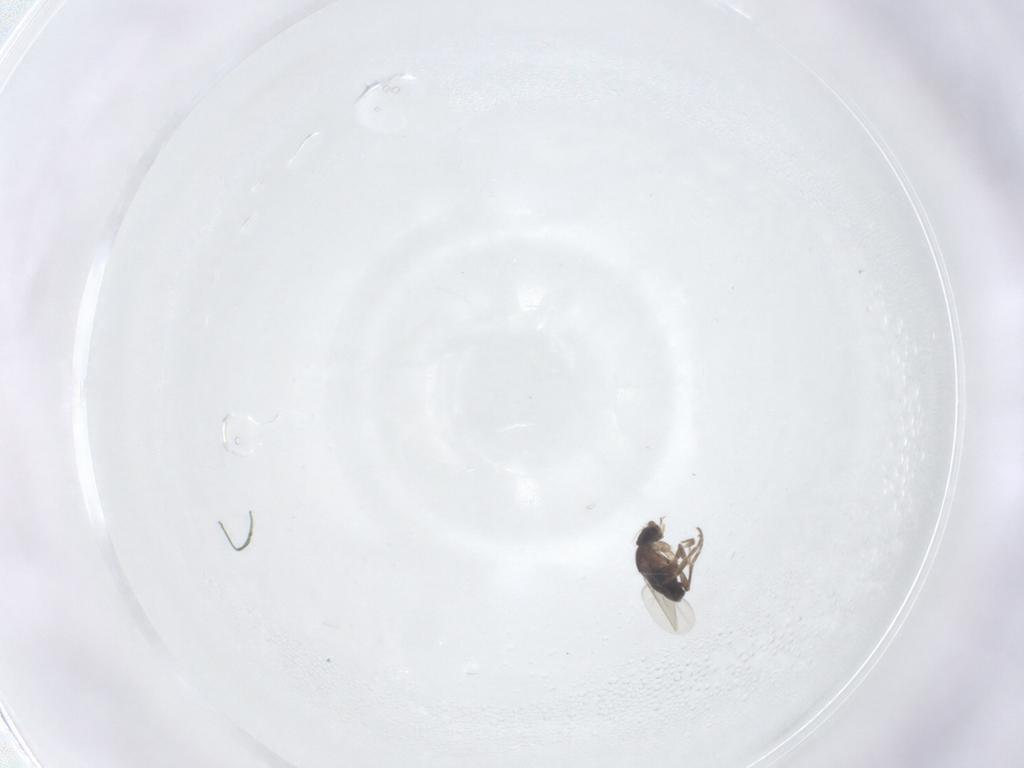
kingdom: Animalia
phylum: Arthropoda
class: Insecta
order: Diptera
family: Phoridae
